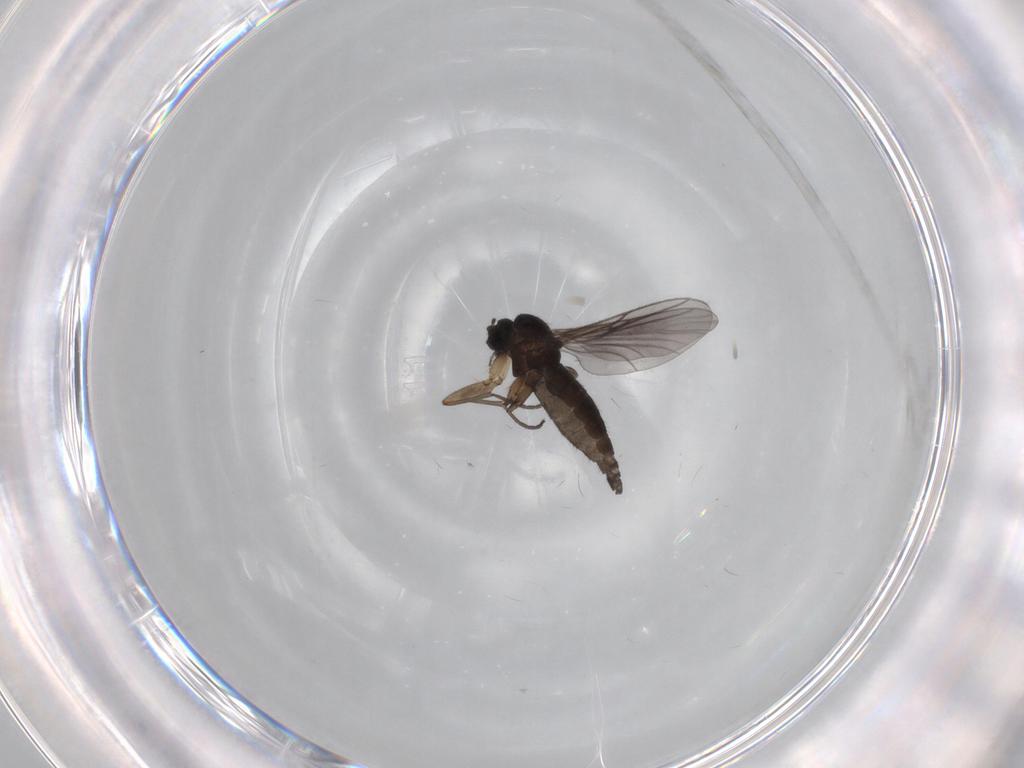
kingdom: Animalia
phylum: Arthropoda
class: Insecta
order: Diptera
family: Sciaridae
